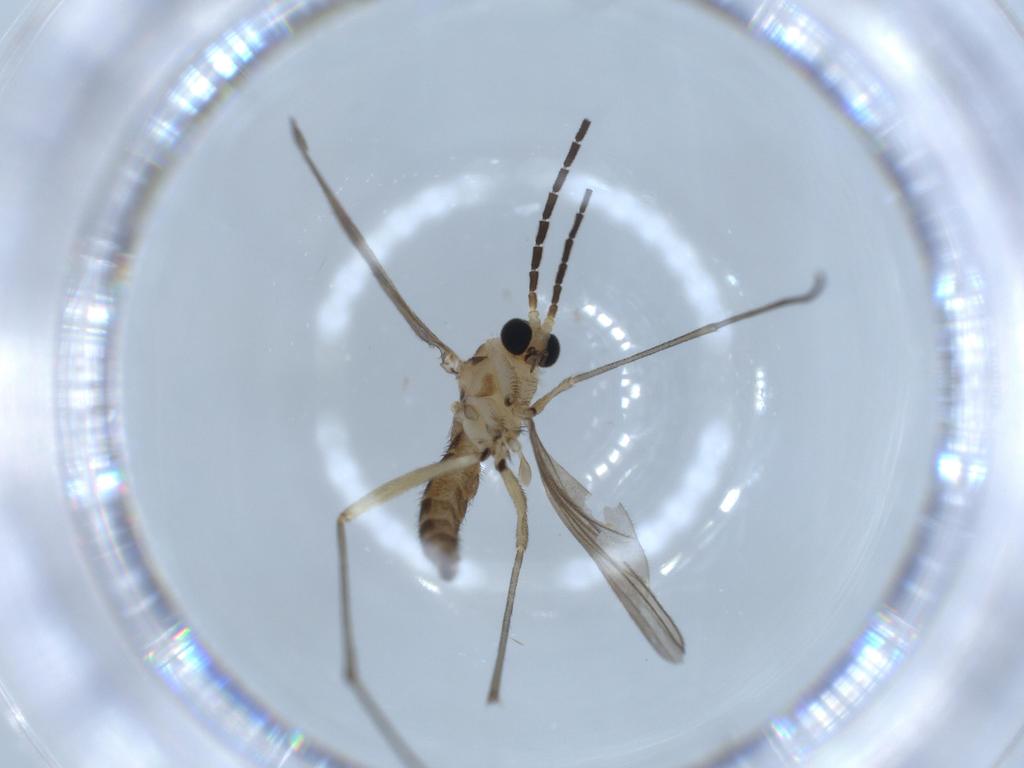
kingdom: Animalia
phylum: Arthropoda
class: Insecta
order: Diptera
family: Sciaridae
